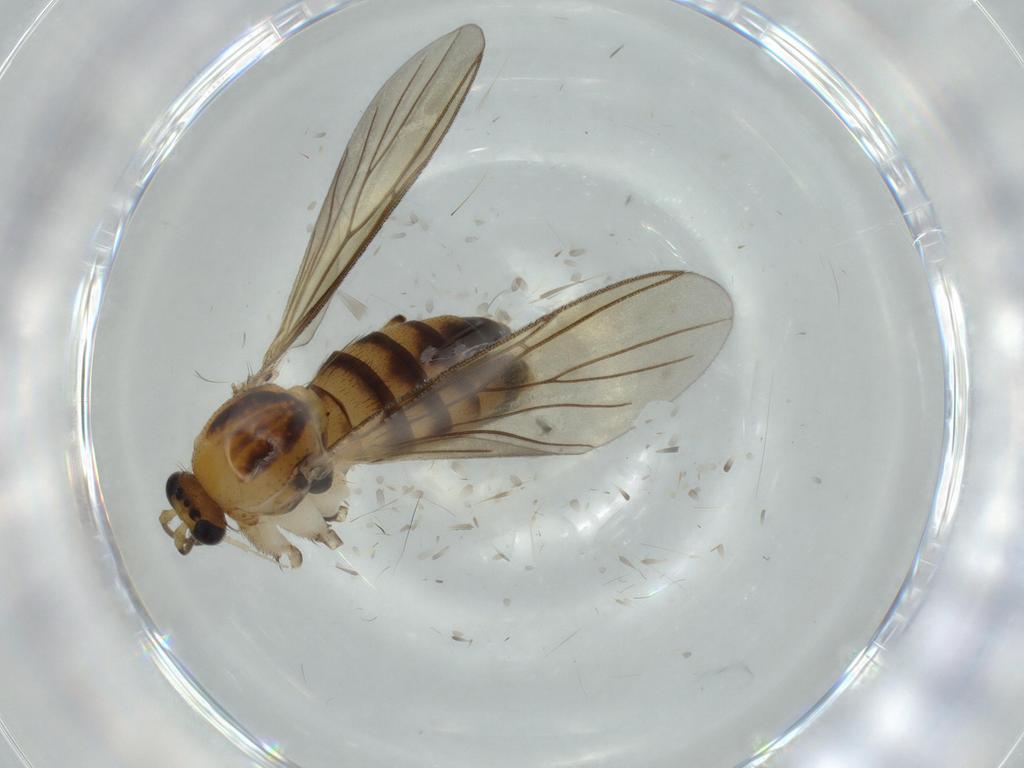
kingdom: Animalia
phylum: Arthropoda
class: Insecta
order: Diptera
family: Mycetophilidae
